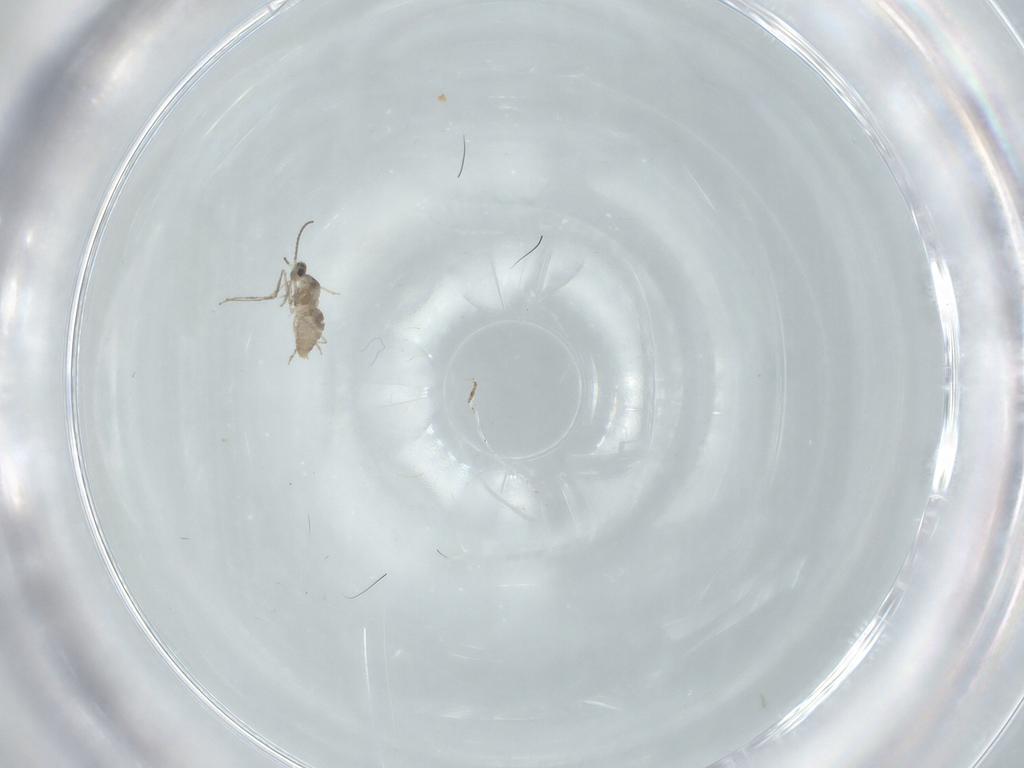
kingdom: Animalia
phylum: Arthropoda
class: Insecta
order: Diptera
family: Cecidomyiidae
